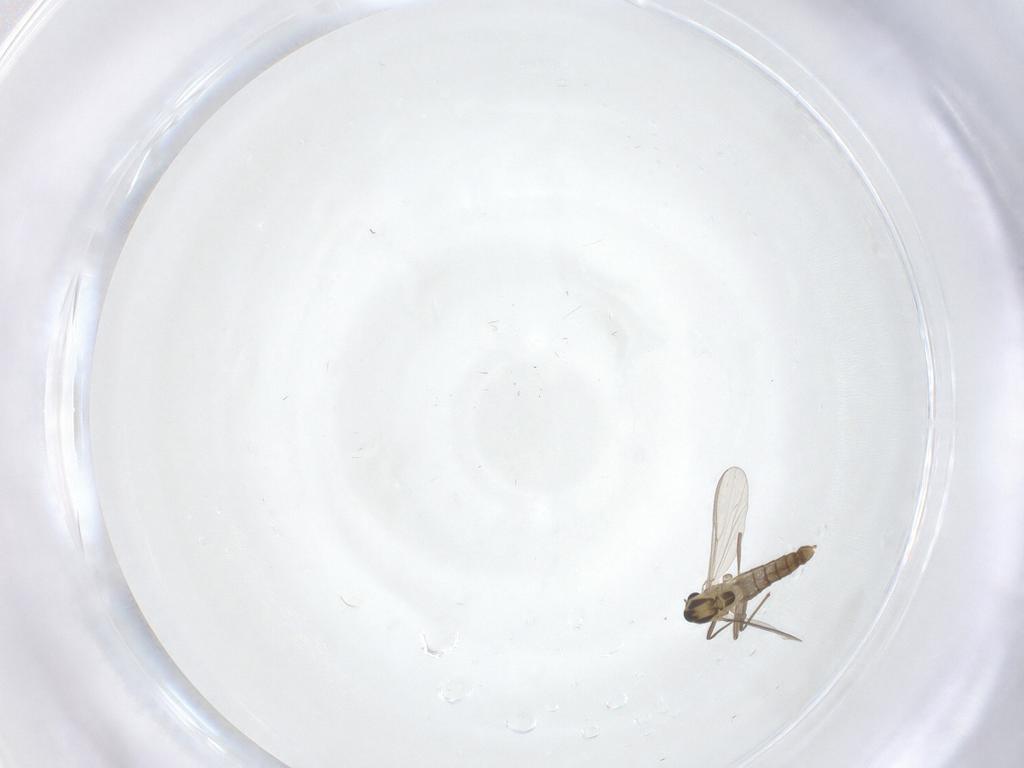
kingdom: Animalia
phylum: Arthropoda
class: Insecta
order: Diptera
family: Chironomidae
